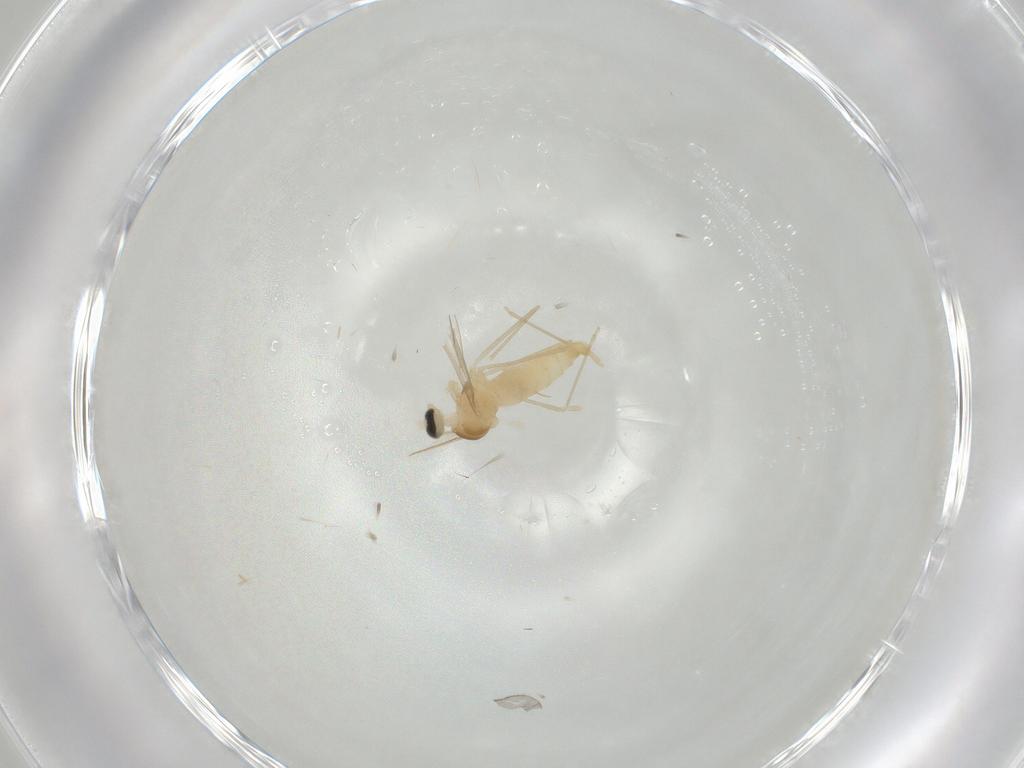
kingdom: Animalia
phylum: Arthropoda
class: Insecta
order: Diptera
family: Cecidomyiidae
